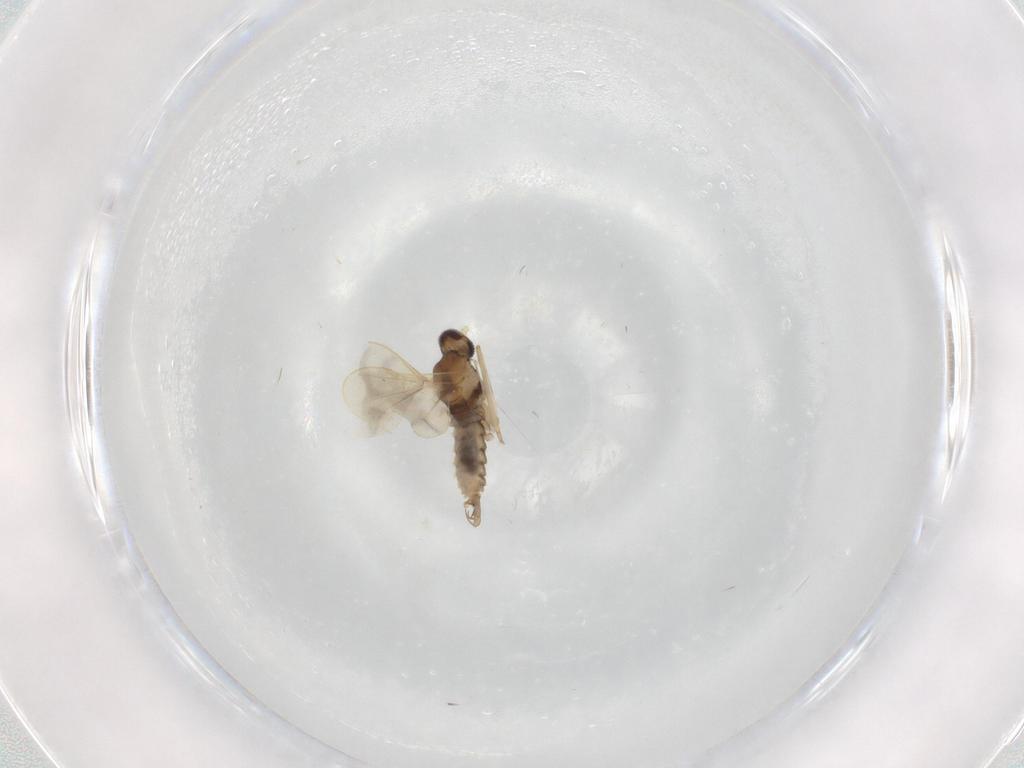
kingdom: Animalia
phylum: Arthropoda
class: Insecta
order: Diptera
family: Cecidomyiidae
